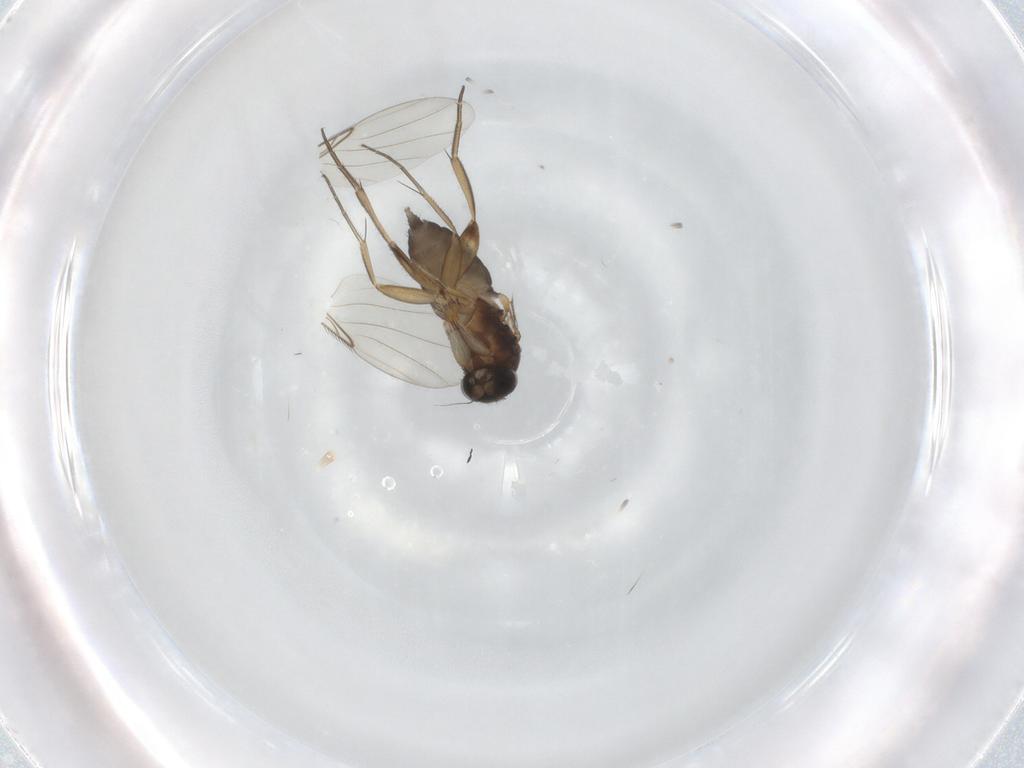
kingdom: Animalia
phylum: Arthropoda
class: Insecta
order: Diptera
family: Phoridae
